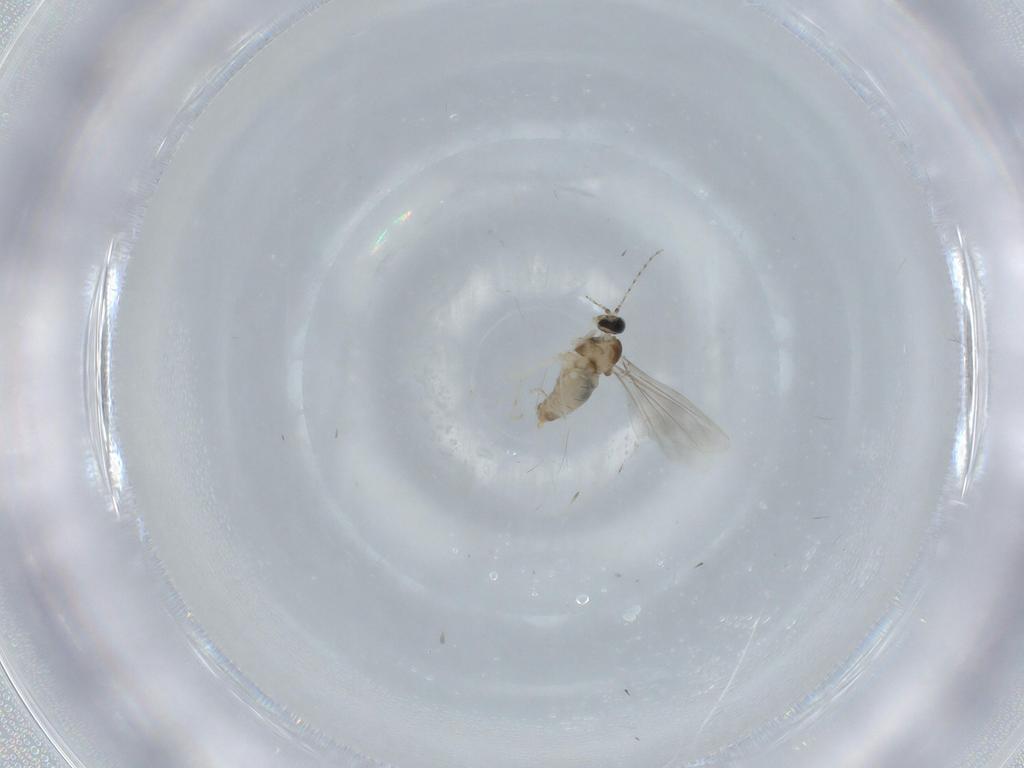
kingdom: Animalia
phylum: Arthropoda
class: Insecta
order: Diptera
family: Cecidomyiidae
